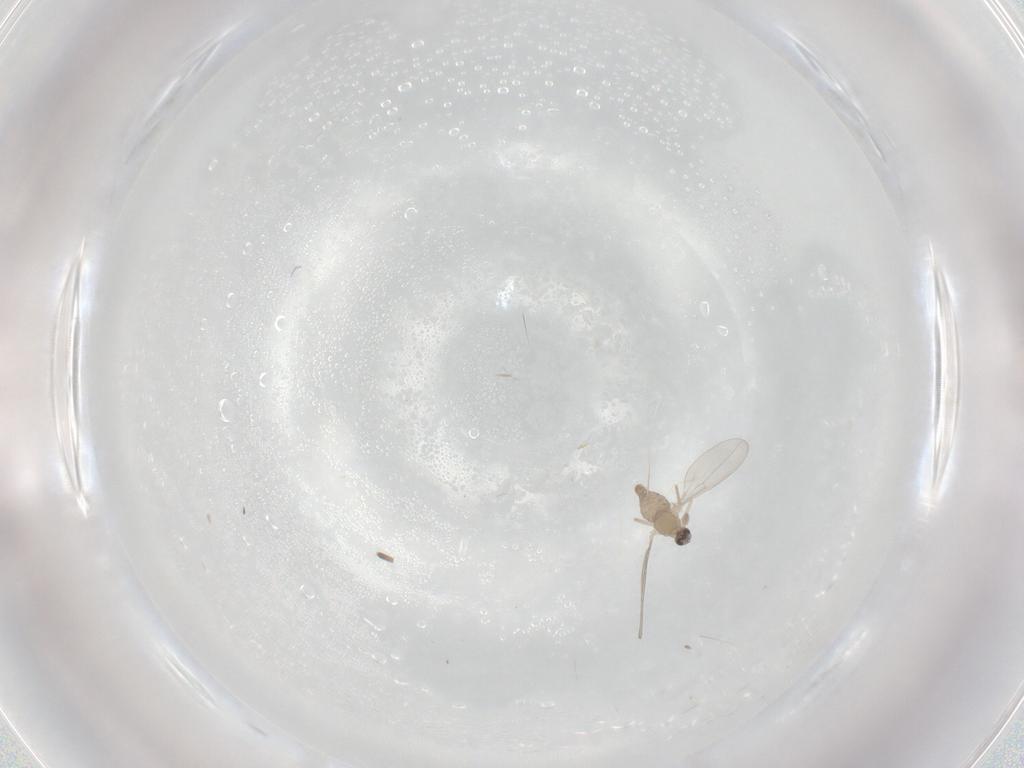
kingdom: Animalia
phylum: Arthropoda
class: Insecta
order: Diptera
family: Cecidomyiidae
